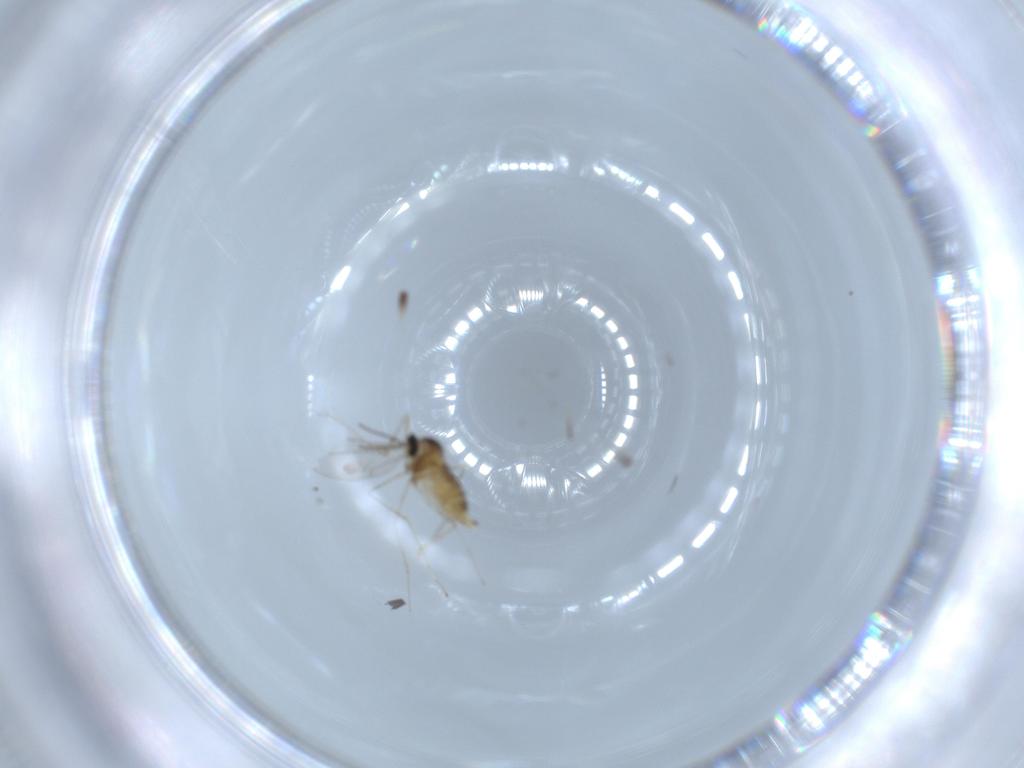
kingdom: Animalia
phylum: Arthropoda
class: Insecta
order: Diptera
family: Cecidomyiidae
